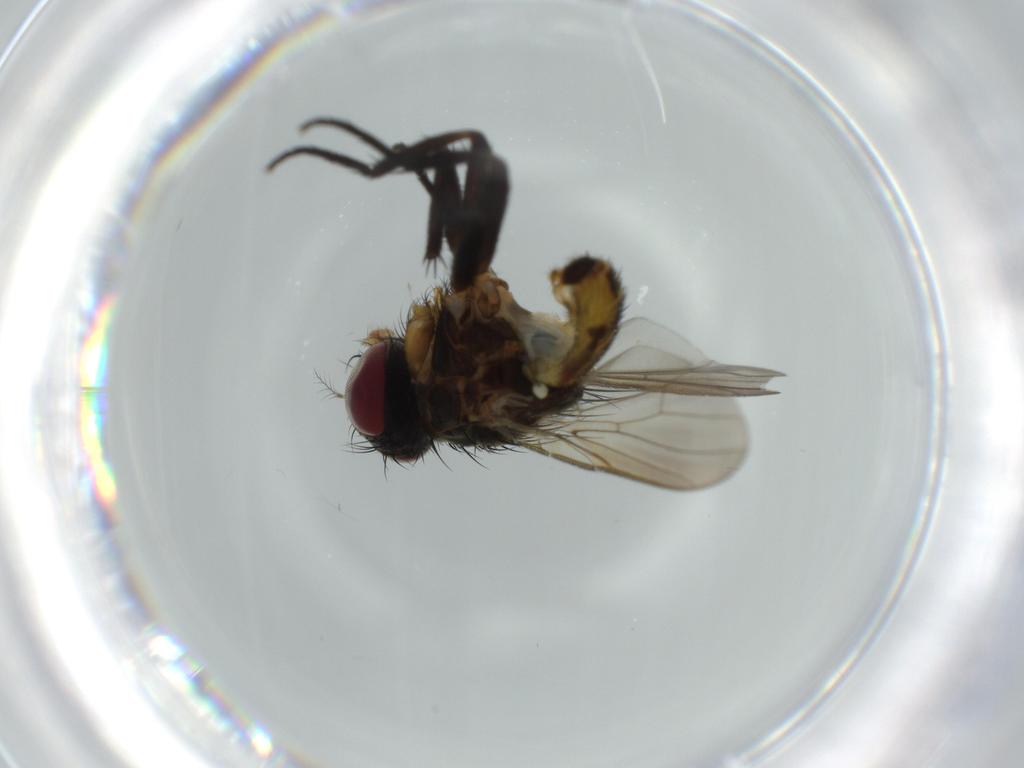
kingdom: Animalia
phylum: Arthropoda
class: Insecta
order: Diptera
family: Anthomyiidae
